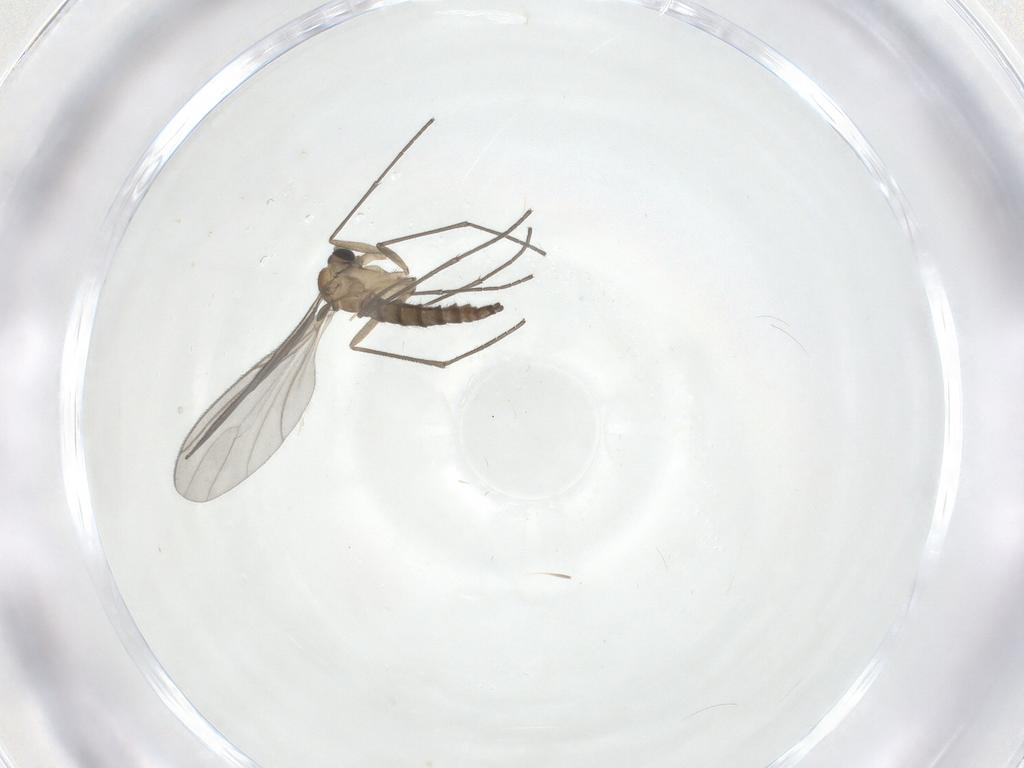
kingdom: Animalia
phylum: Arthropoda
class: Insecta
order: Diptera
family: Sciaridae
